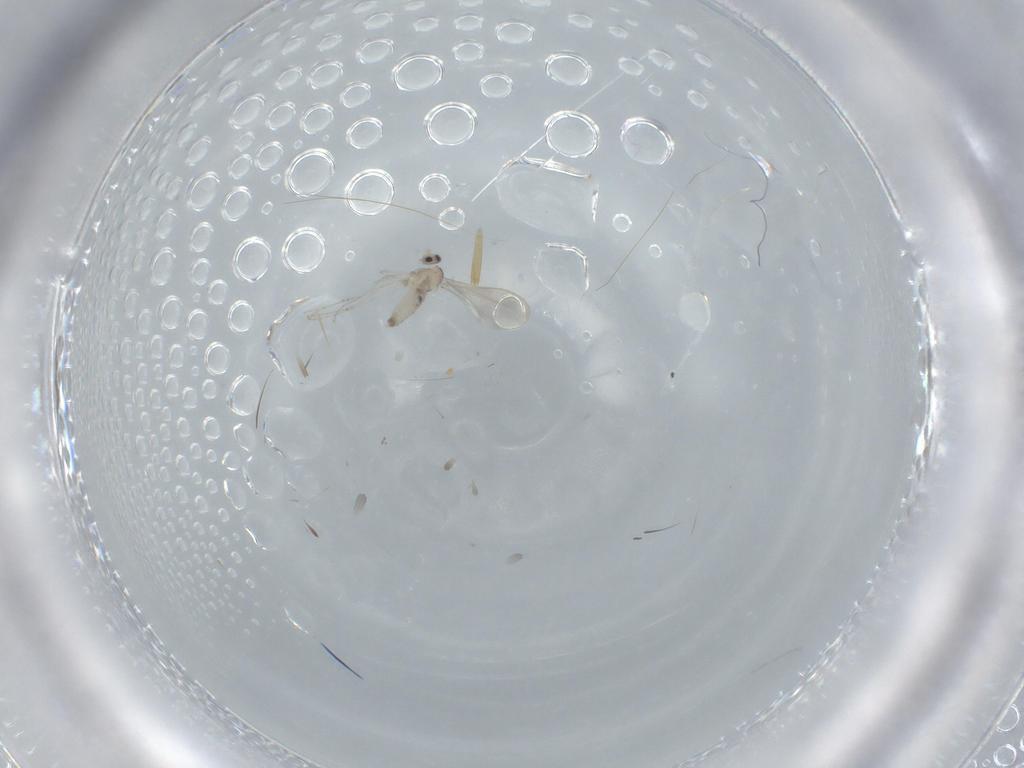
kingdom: Animalia
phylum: Arthropoda
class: Insecta
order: Diptera
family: Cecidomyiidae
